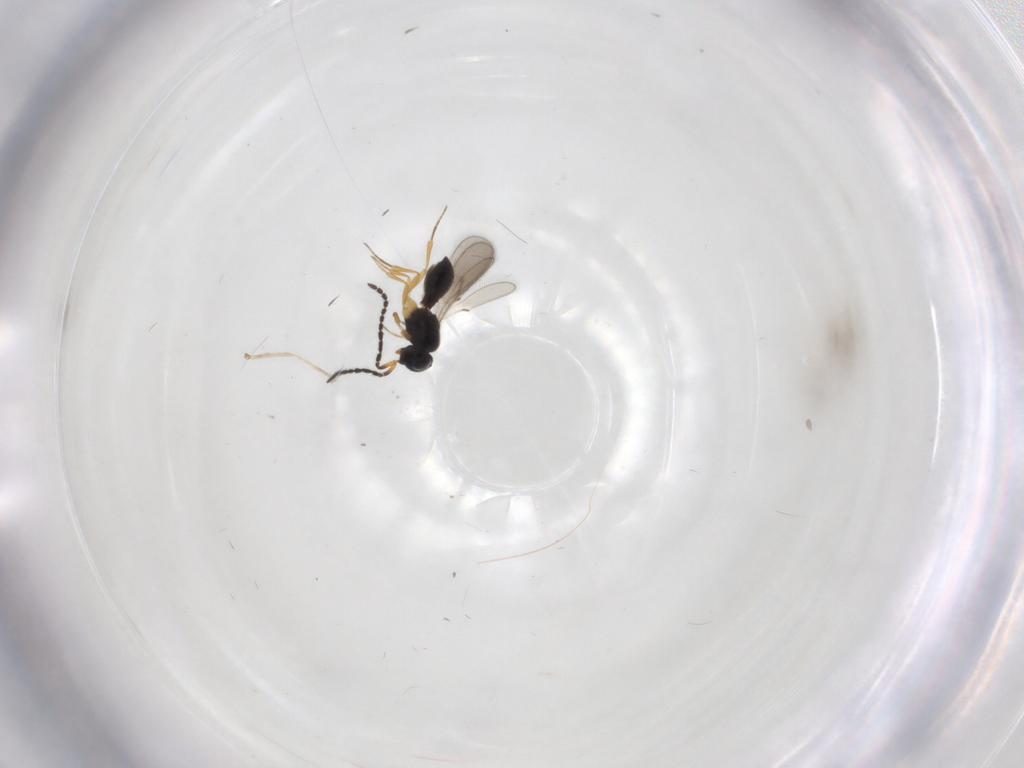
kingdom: Animalia
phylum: Arthropoda
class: Insecta
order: Hymenoptera
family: Scelionidae
